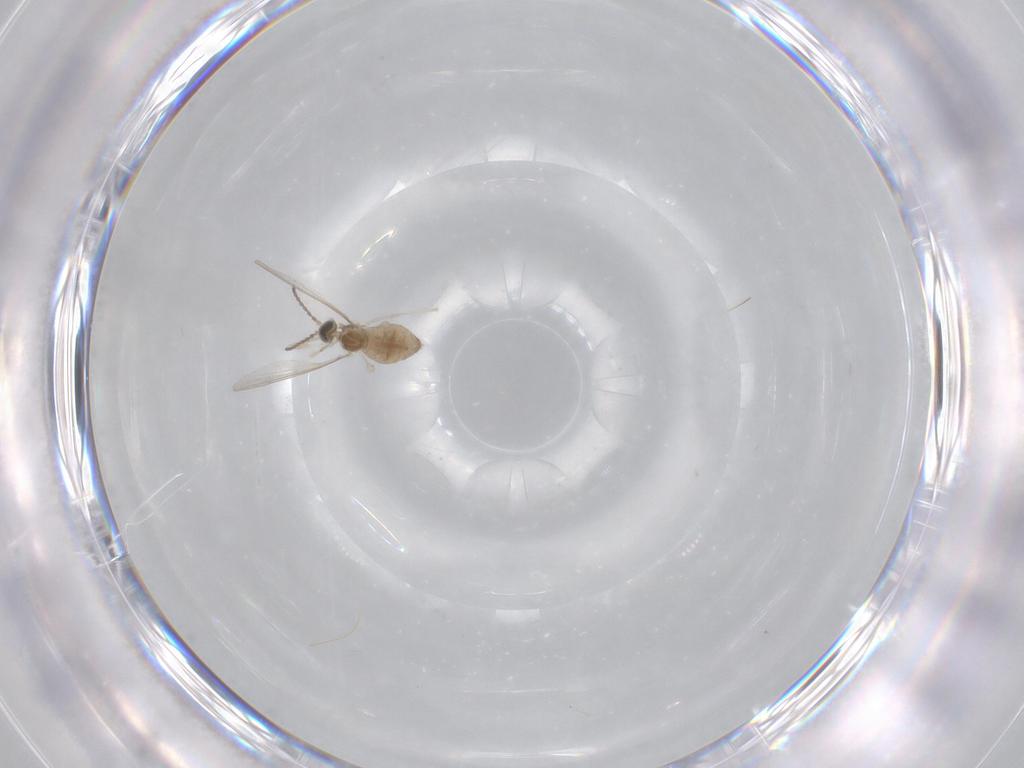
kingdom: Animalia
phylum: Arthropoda
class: Insecta
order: Diptera
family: Cecidomyiidae
